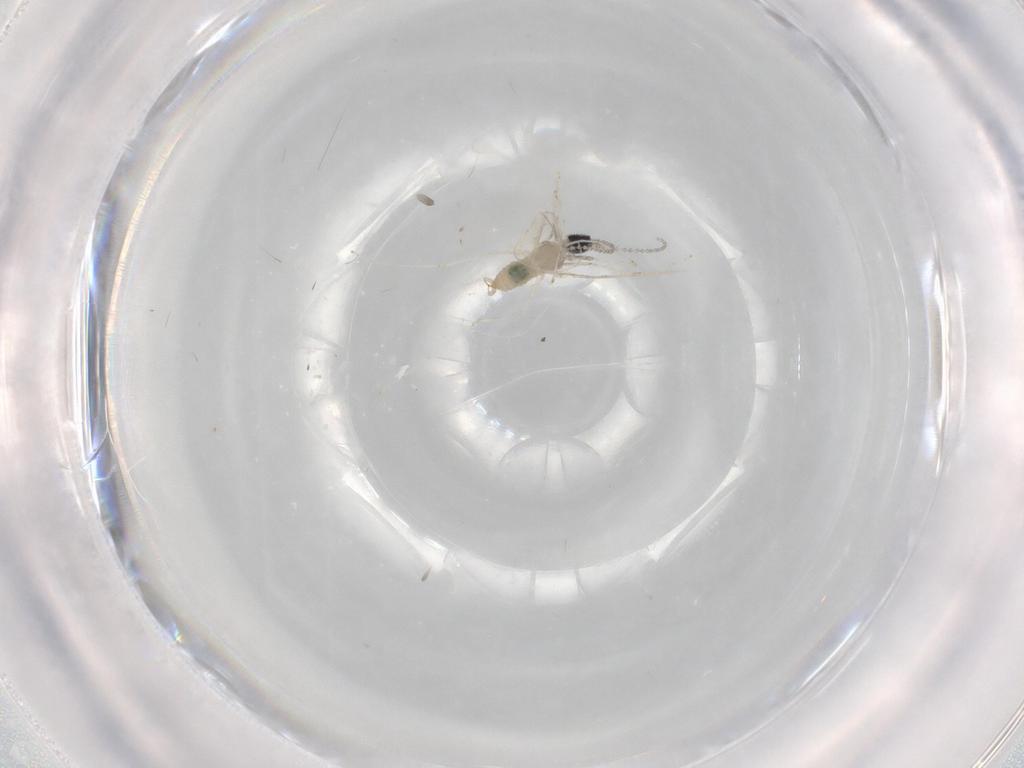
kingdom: Animalia
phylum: Arthropoda
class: Insecta
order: Diptera
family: Cecidomyiidae
